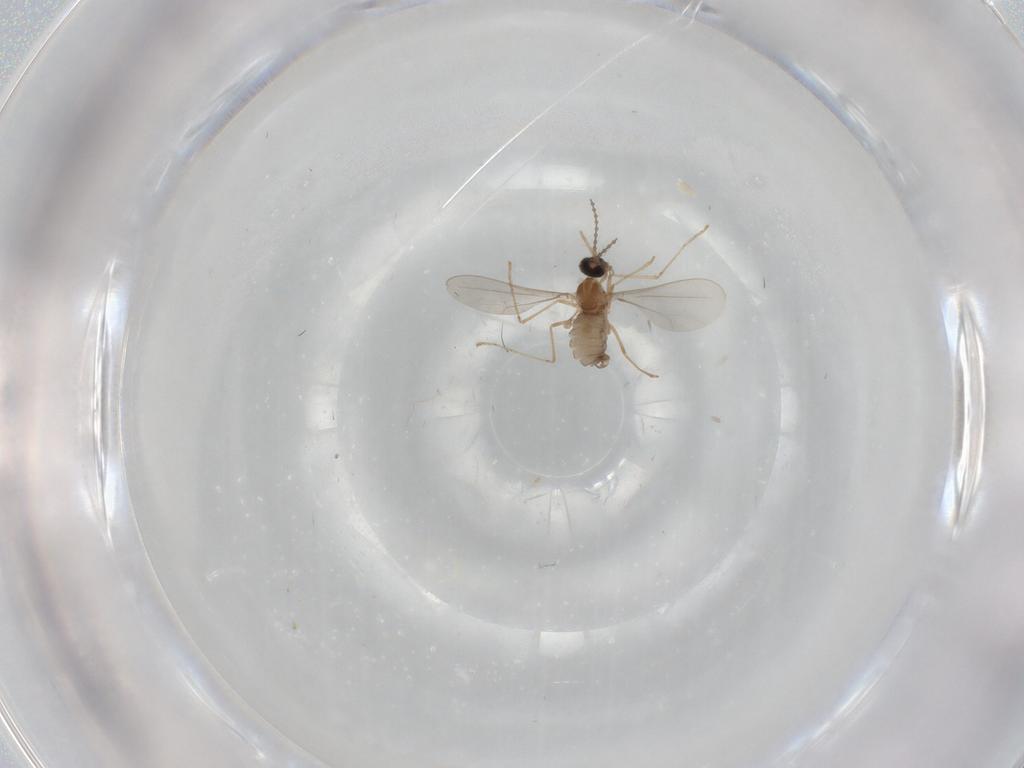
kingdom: Animalia
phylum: Arthropoda
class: Insecta
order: Diptera
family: Cecidomyiidae
